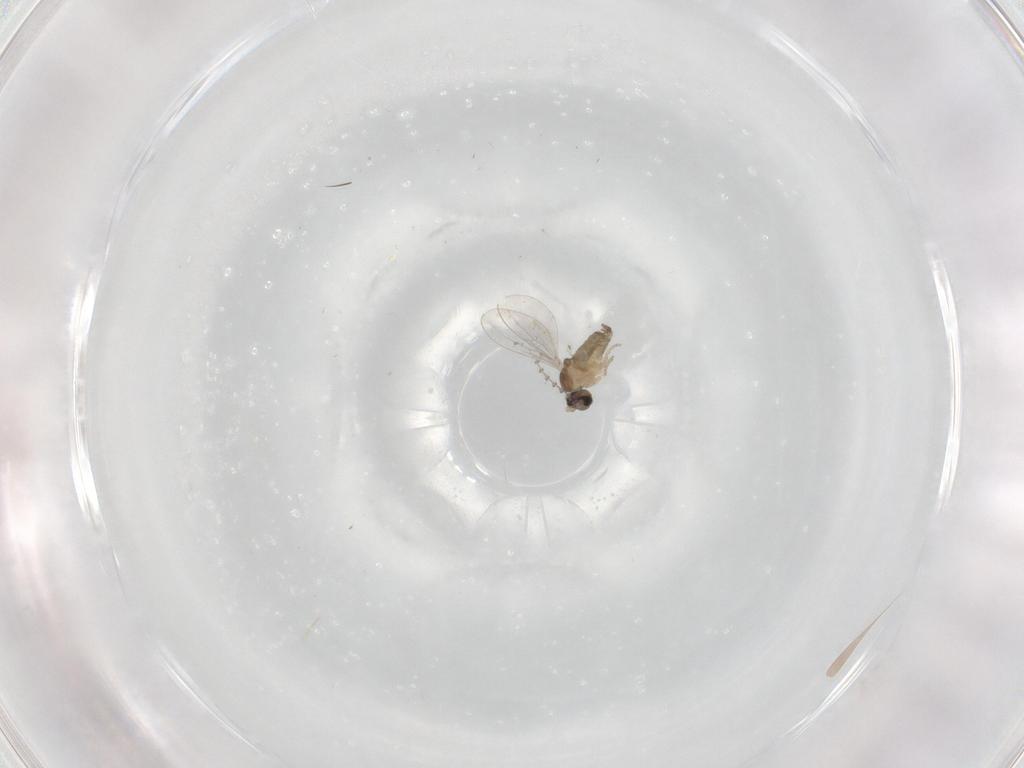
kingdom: Animalia
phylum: Arthropoda
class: Insecta
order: Diptera
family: Cecidomyiidae
